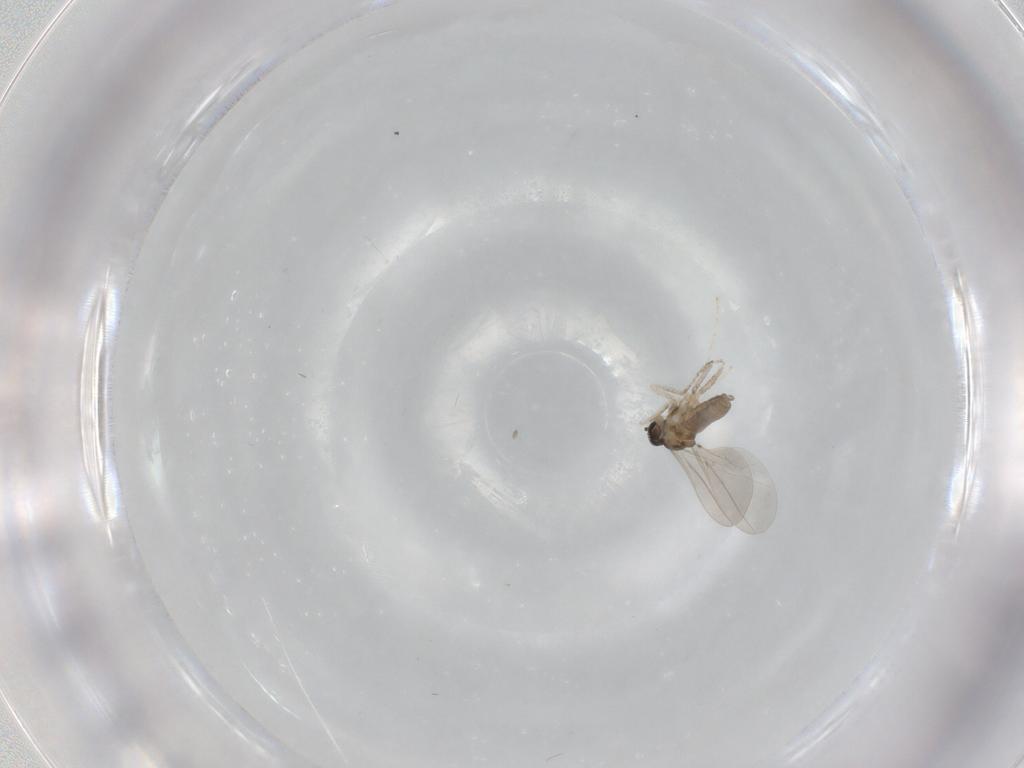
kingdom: Animalia
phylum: Arthropoda
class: Insecta
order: Diptera
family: Cecidomyiidae
